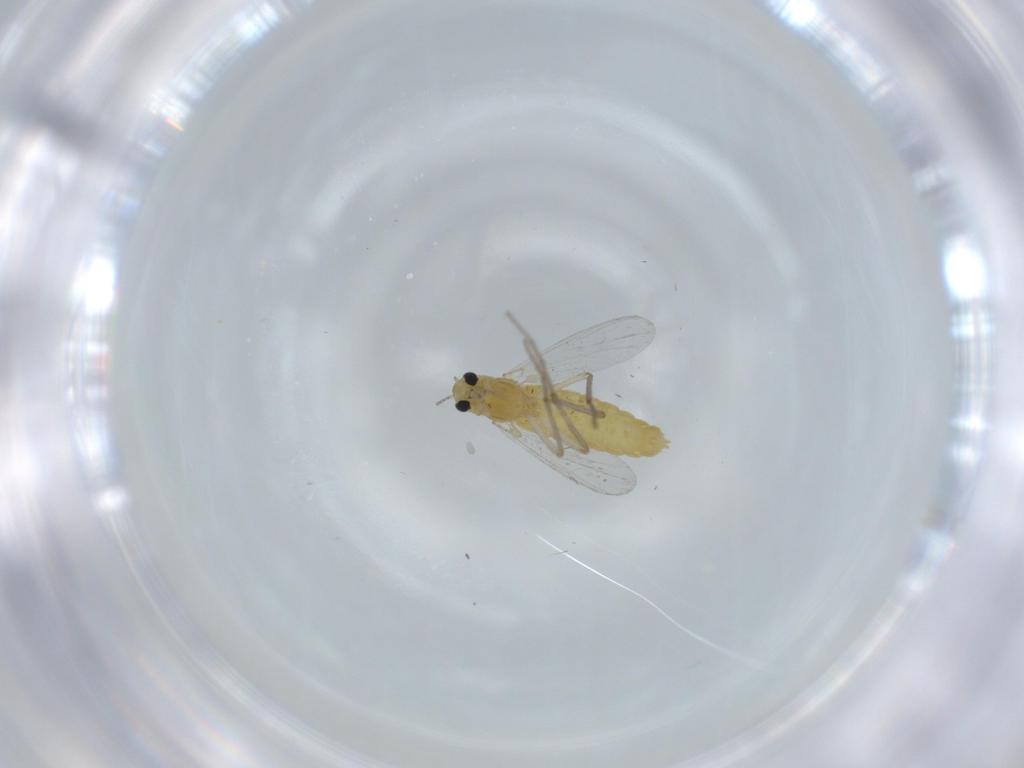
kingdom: Animalia
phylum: Arthropoda
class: Insecta
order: Diptera
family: Chironomidae
